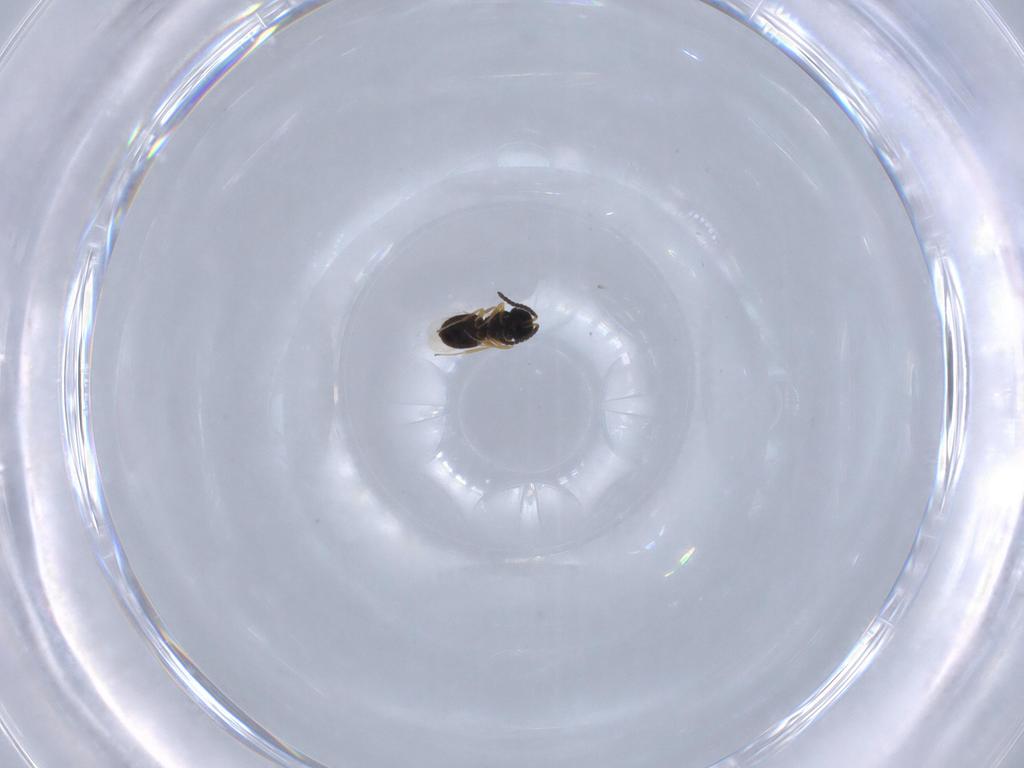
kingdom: Animalia
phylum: Arthropoda
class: Insecta
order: Hymenoptera
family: Scelionidae
